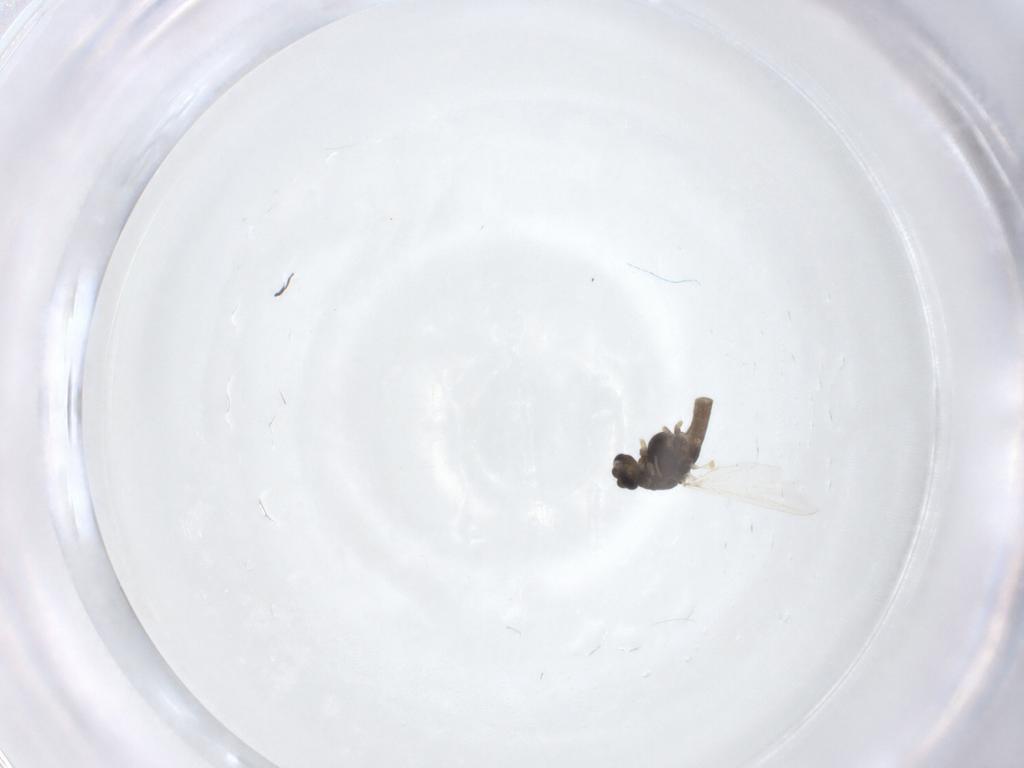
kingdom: Animalia
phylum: Arthropoda
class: Insecta
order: Diptera
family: Chironomidae
